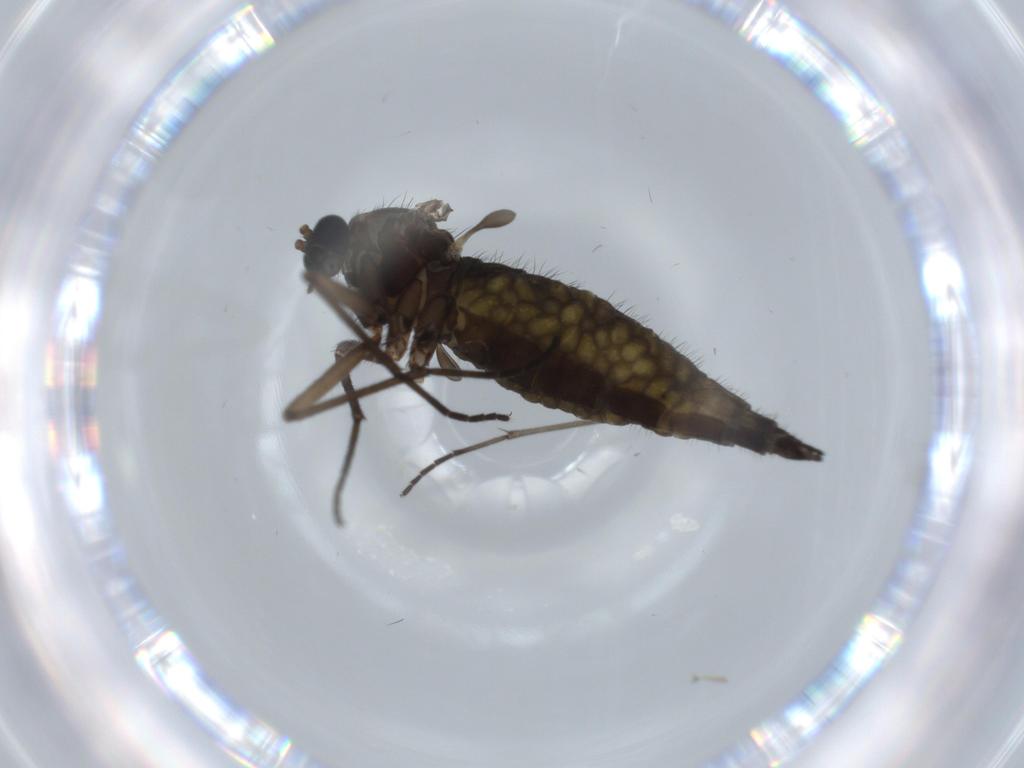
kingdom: Animalia
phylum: Arthropoda
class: Insecta
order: Diptera
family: Sciaridae
